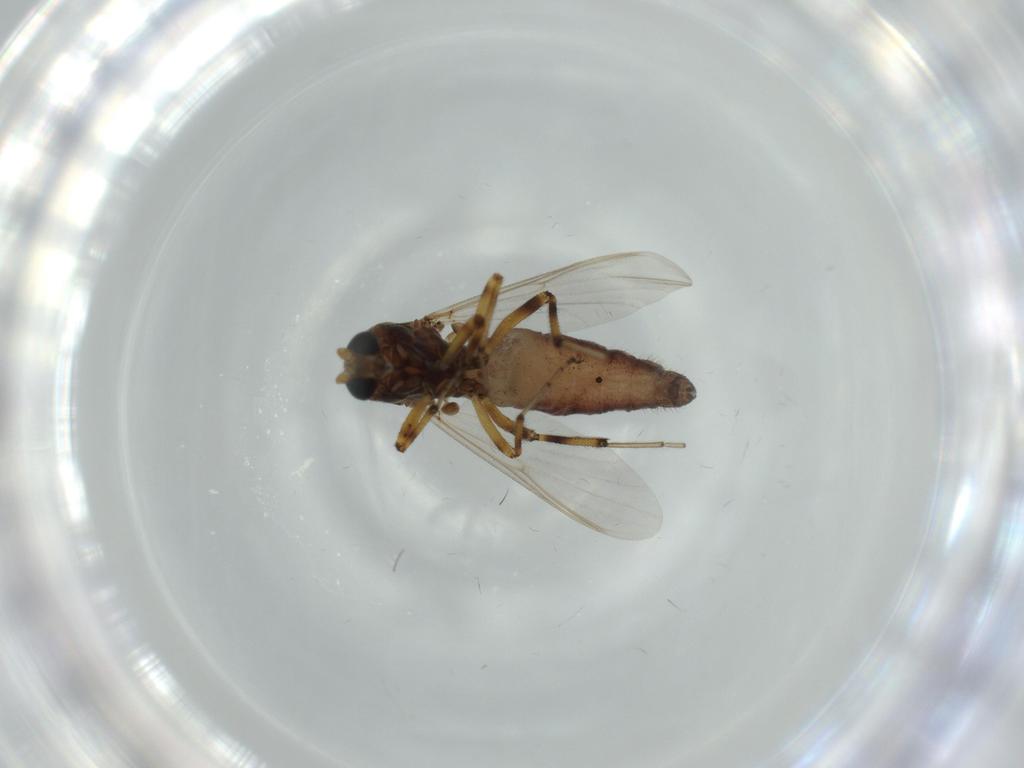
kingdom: Animalia
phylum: Arthropoda
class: Insecta
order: Diptera
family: Ceratopogonidae
